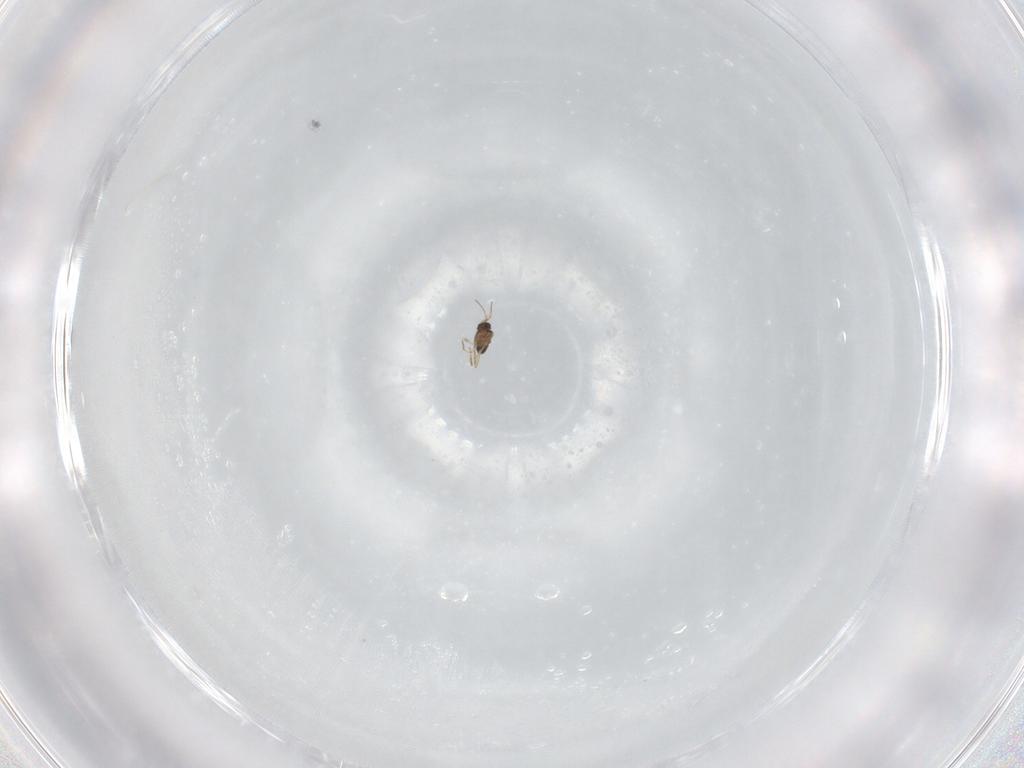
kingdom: Animalia
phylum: Arthropoda
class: Insecta
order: Hymenoptera
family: Mymaridae
